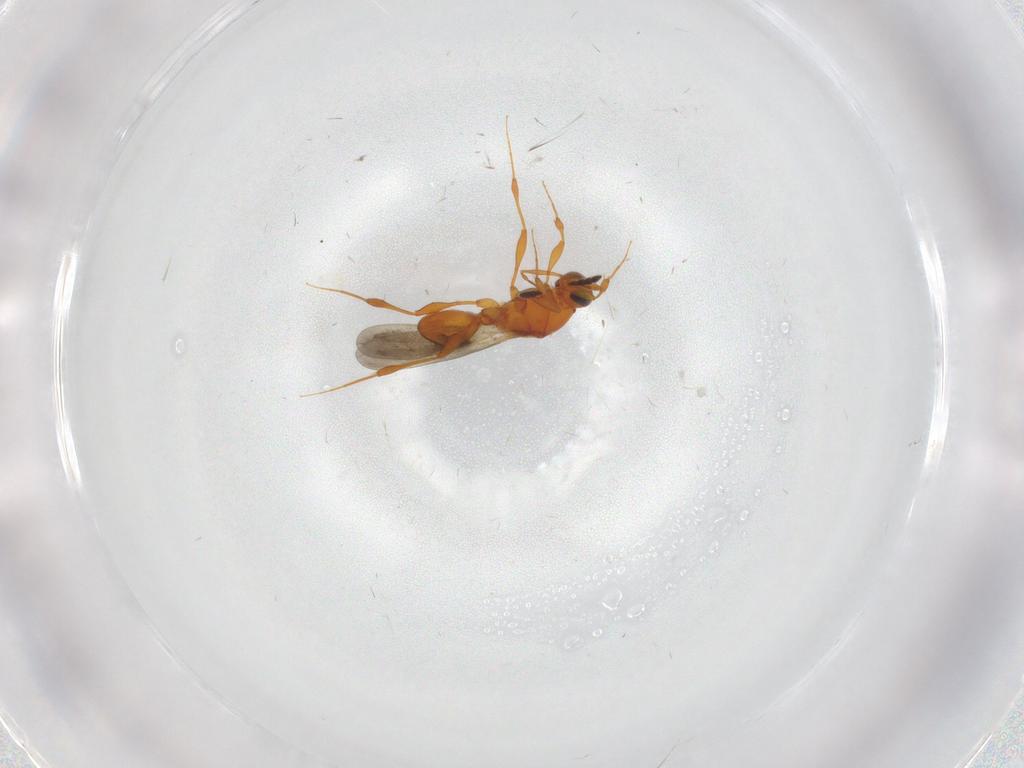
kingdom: Animalia
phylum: Arthropoda
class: Insecta
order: Hymenoptera
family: Platygastridae
